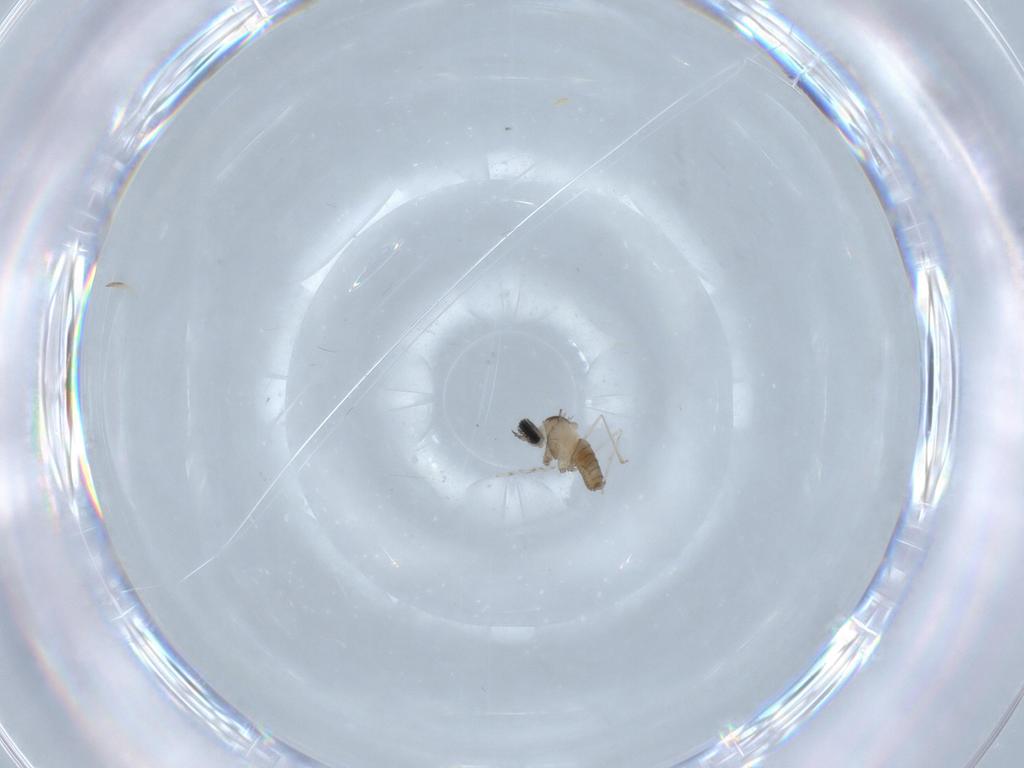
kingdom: Animalia
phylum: Arthropoda
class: Insecta
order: Diptera
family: Cecidomyiidae
